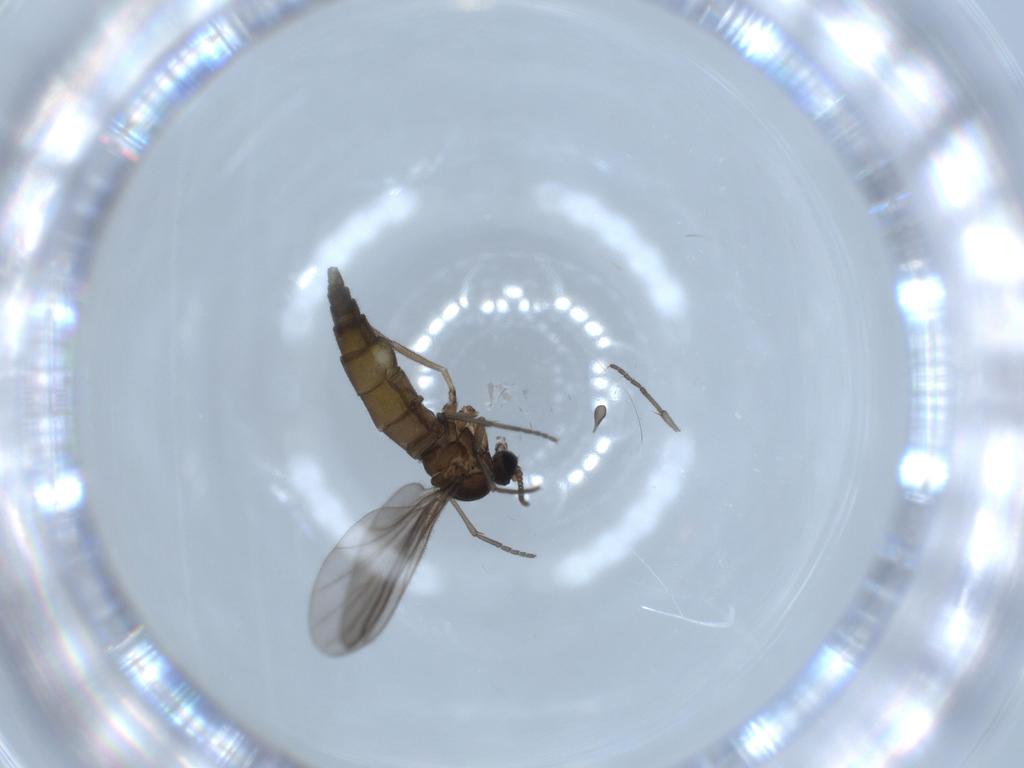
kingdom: Animalia
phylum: Arthropoda
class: Insecta
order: Diptera
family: Sciaridae
